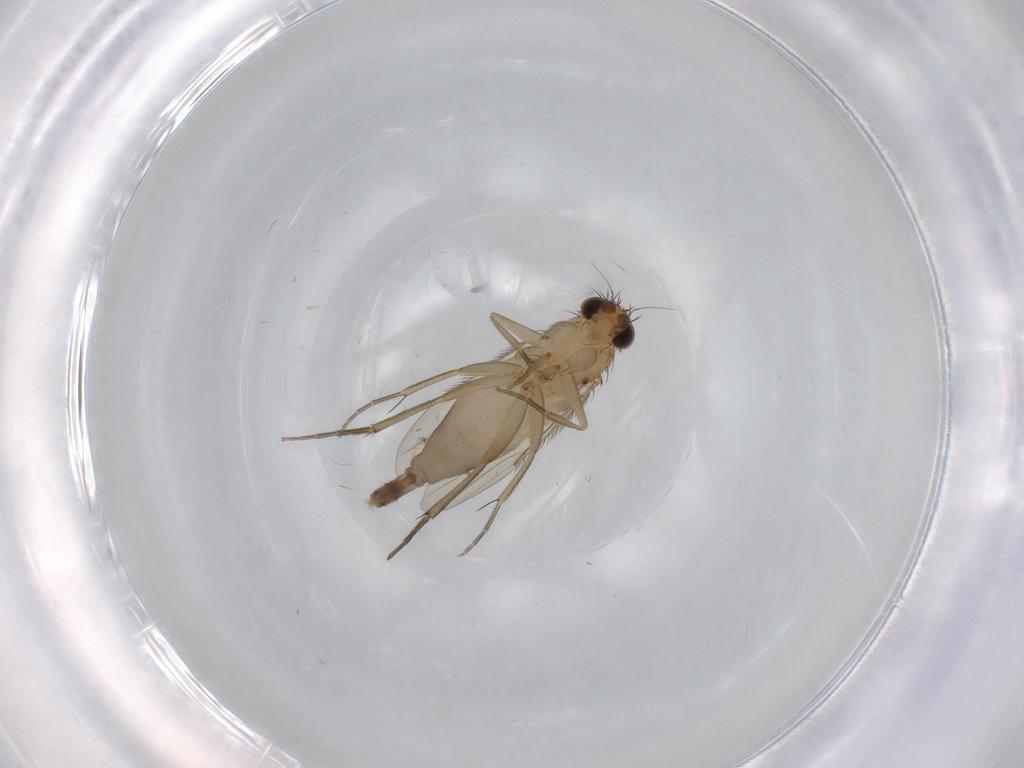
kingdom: Animalia
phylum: Arthropoda
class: Insecta
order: Diptera
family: Phoridae
